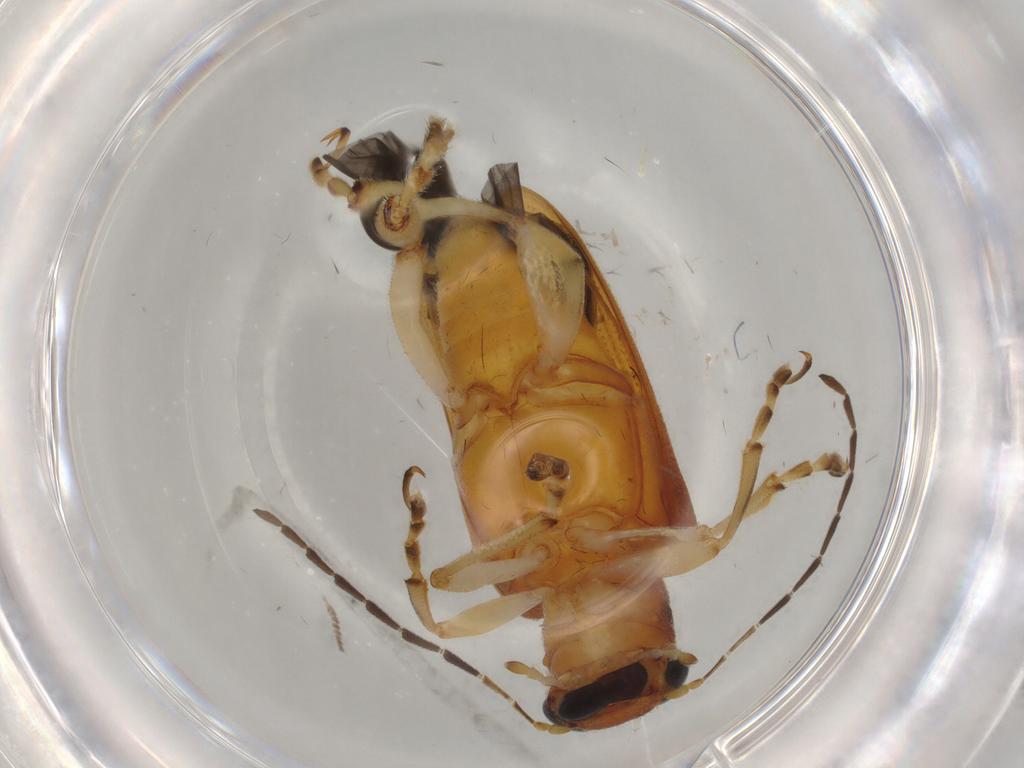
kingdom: Animalia
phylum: Arthropoda
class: Insecta
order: Coleoptera
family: Chrysomelidae
